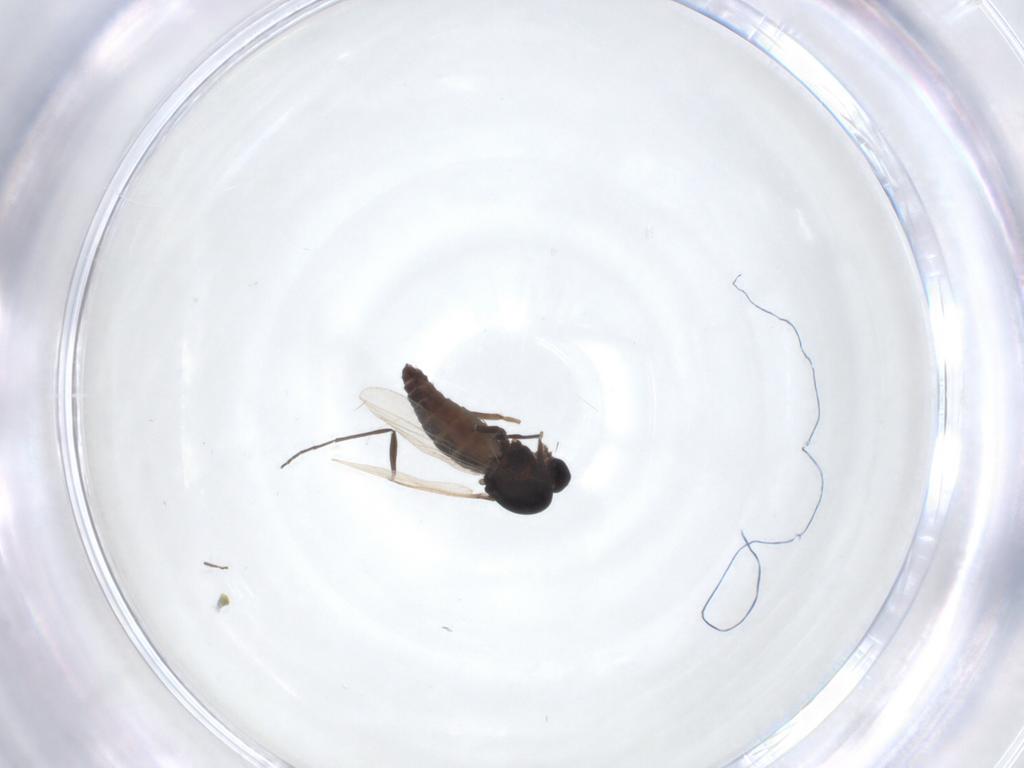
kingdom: Animalia
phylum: Arthropoda
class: Insecta
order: Diptera
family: Ceratopogonidae
